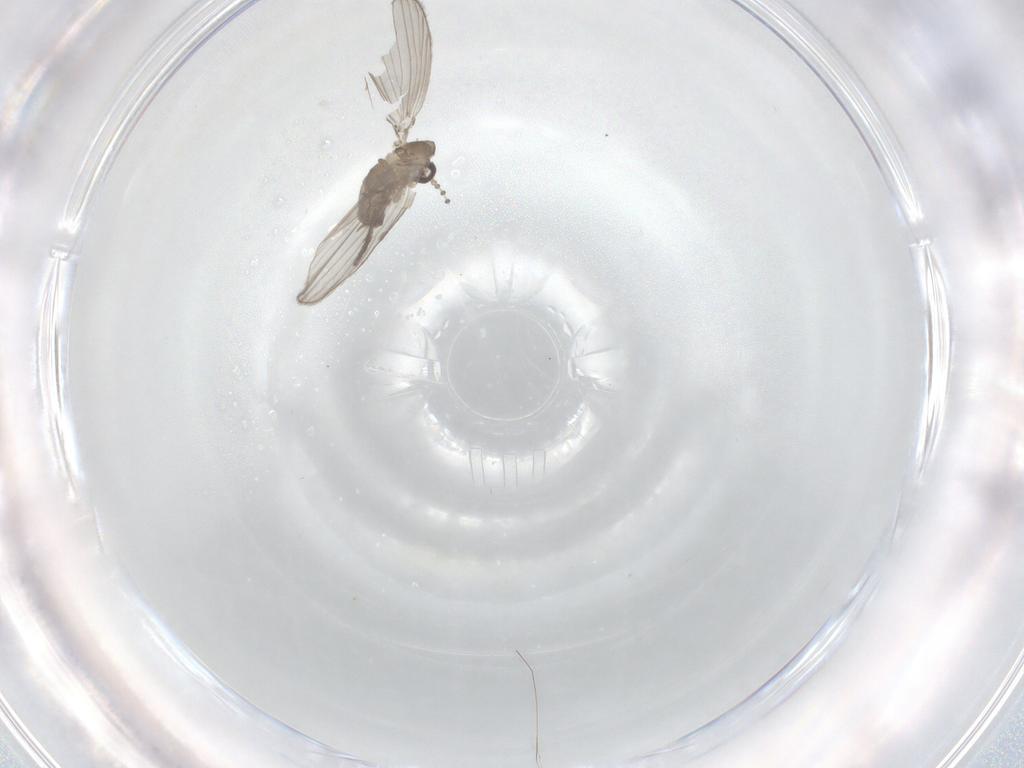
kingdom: Animalia
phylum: Arthropoda
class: Insecta
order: Diptera
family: Psychodidae
